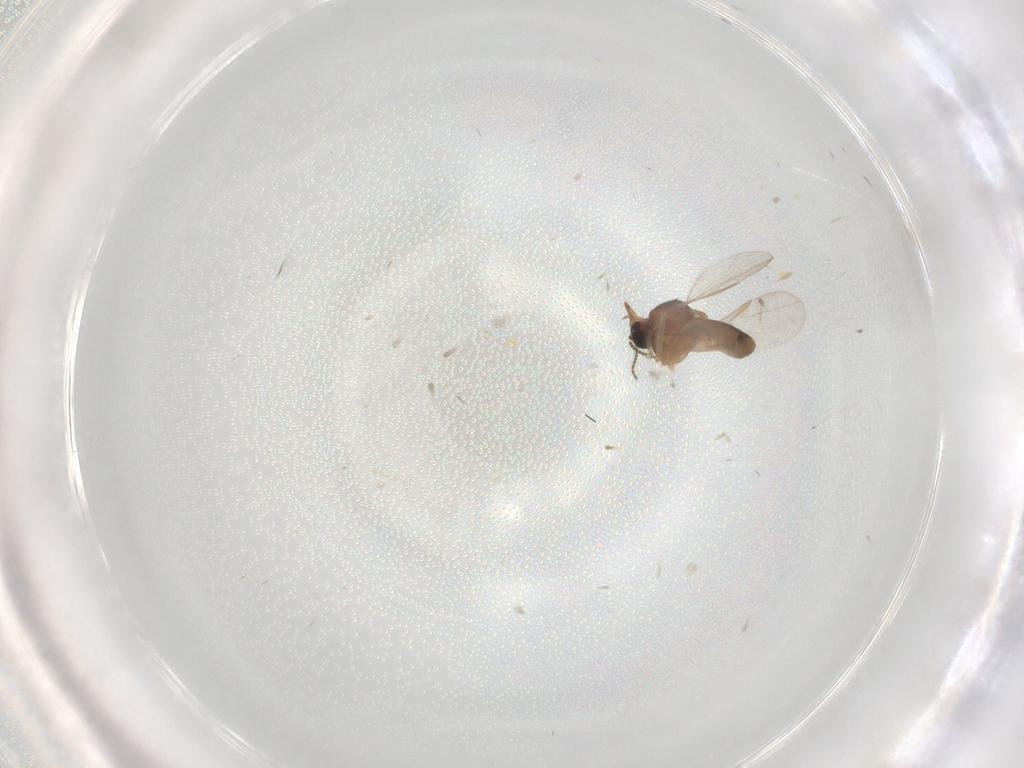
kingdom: Animalia
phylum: Arthropoda
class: Insecta
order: Diptera
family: Ceratopogonidae
